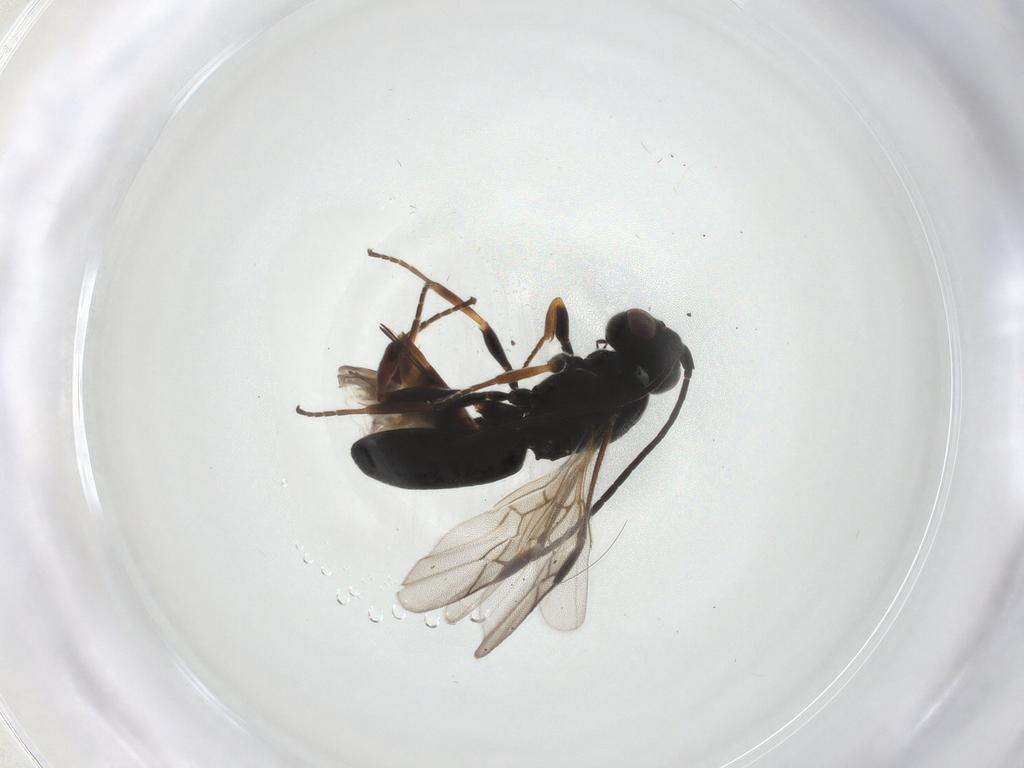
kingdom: Animalia
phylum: Arthropoda
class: Insecta
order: Hymenoptera
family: Braconidae
